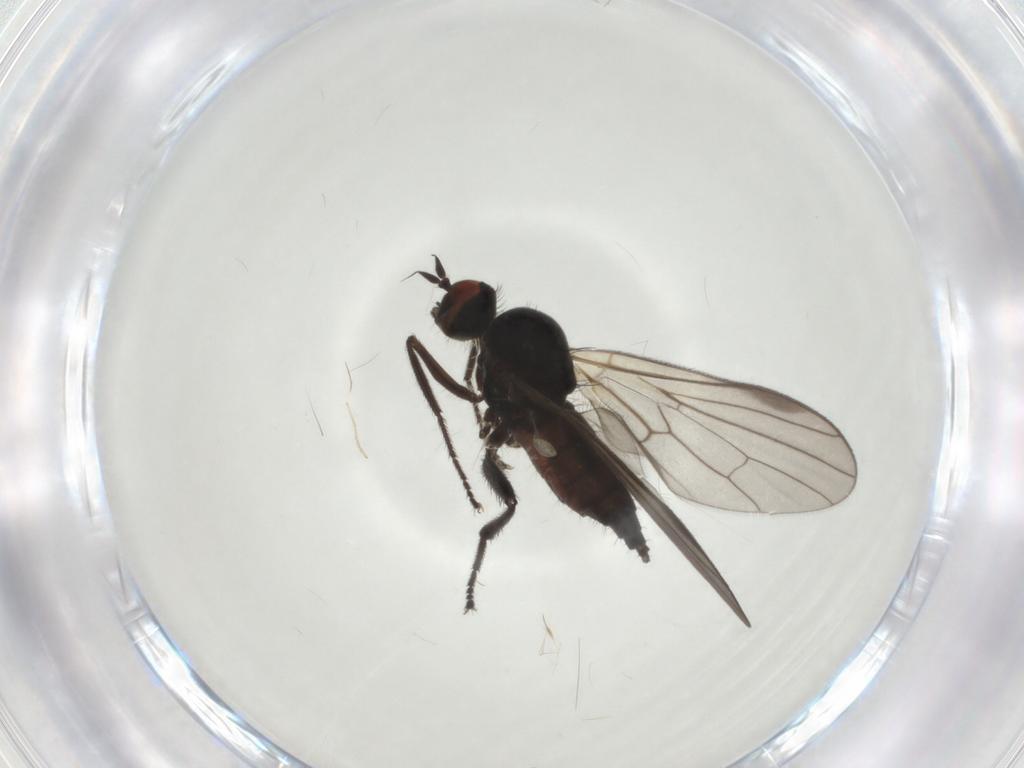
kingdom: Animalia
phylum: Arthropoda
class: Insecta
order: Diptera
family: Hybotidae
